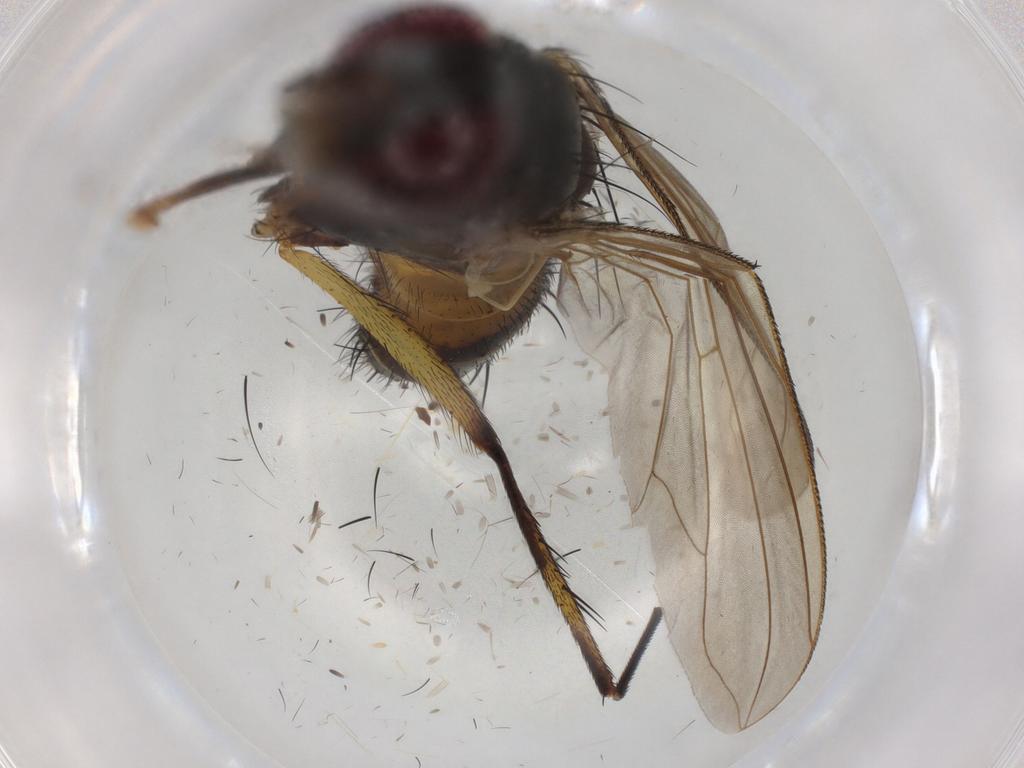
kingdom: Animalia
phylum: Arthropoda
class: Insecta
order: Diptera
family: Tachinidae
